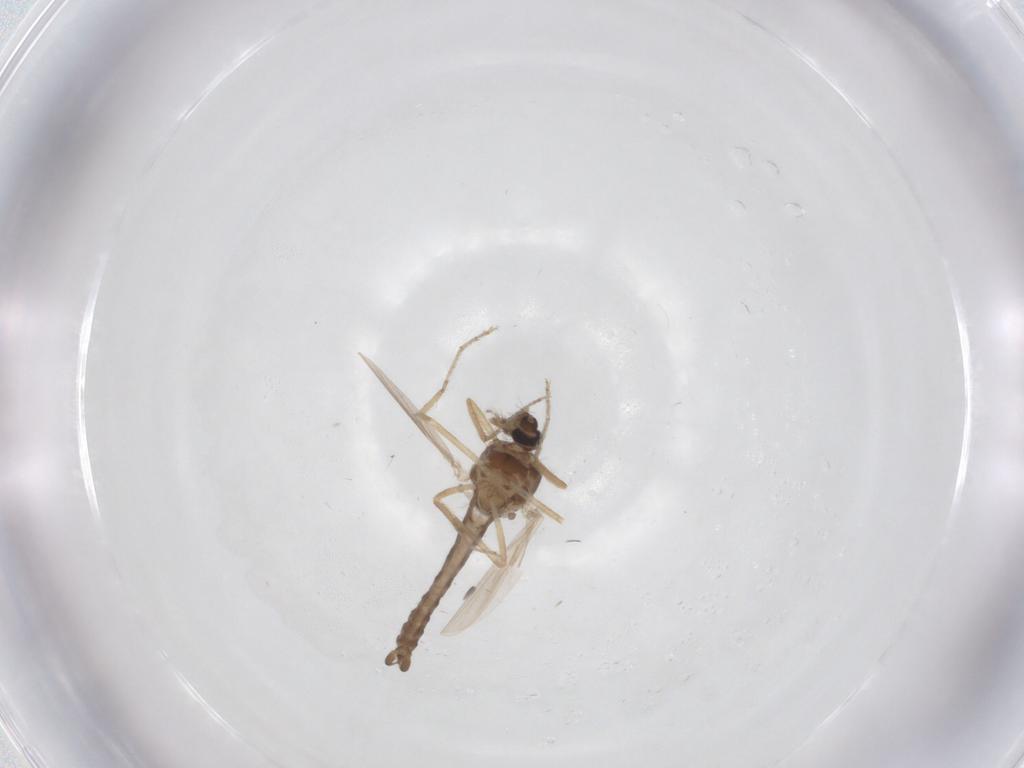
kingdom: Animalia
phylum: Arthropoda
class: Insecta
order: Diptera
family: Ceratopogonidae
